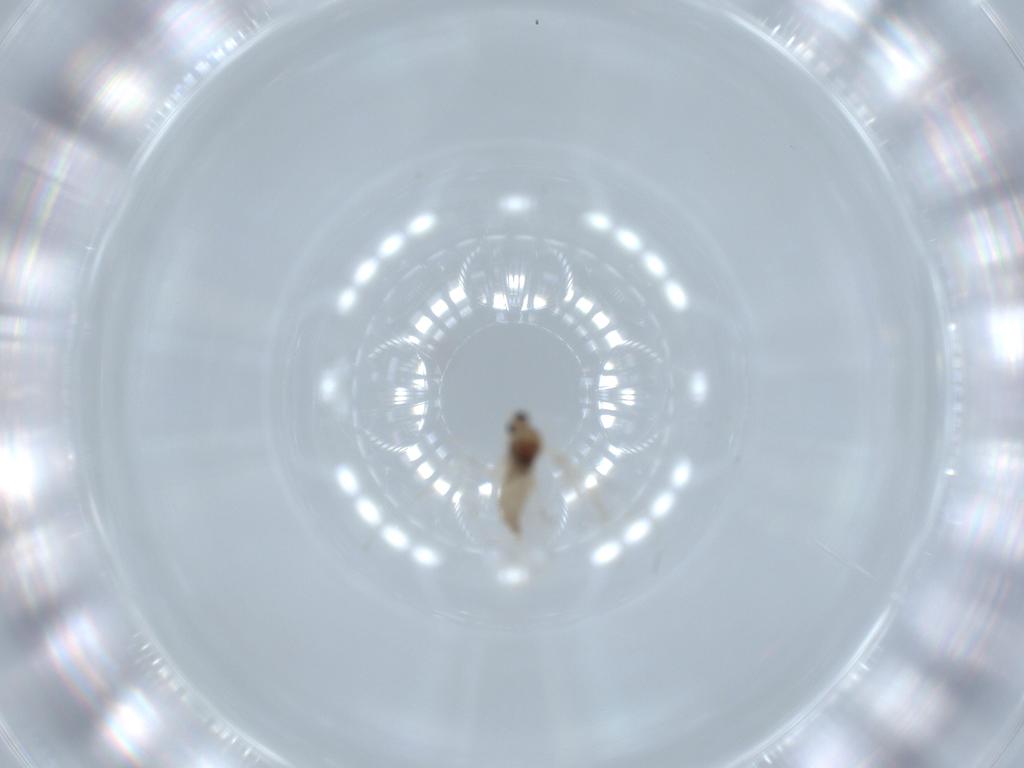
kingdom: Animalia
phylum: Arthropoda
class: Insecta
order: Diptera
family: Cecidomyiidae
